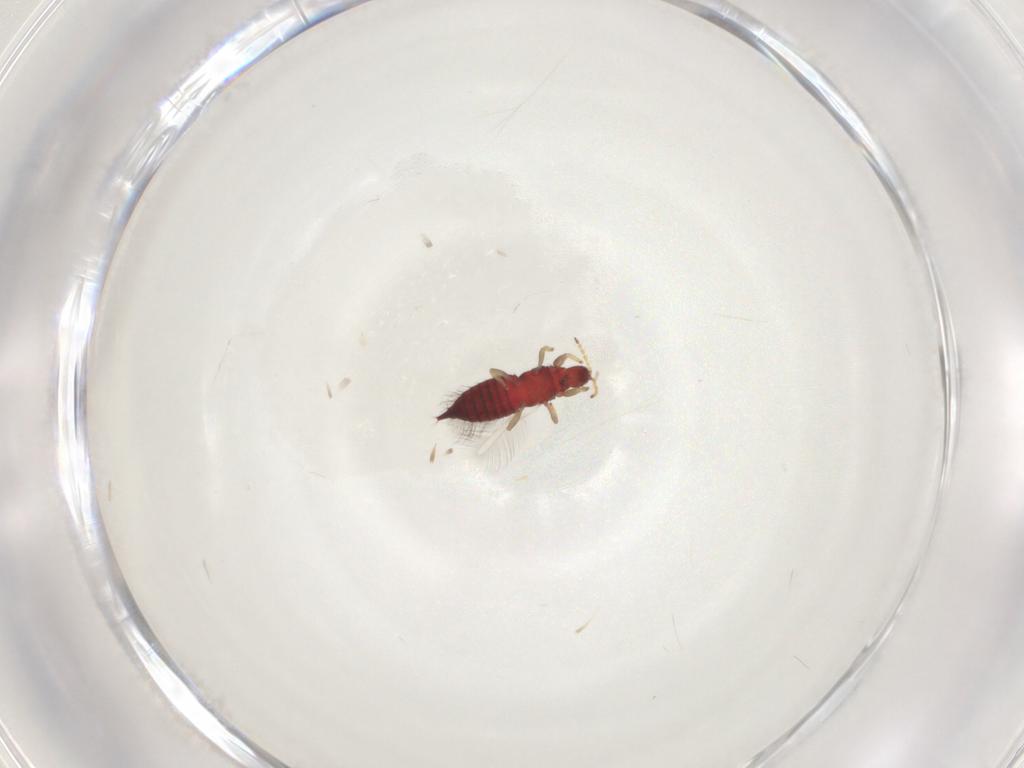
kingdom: Animalia
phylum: Arthropoda
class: Insecta
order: Thysanoptera
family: Phlaeothripidae
